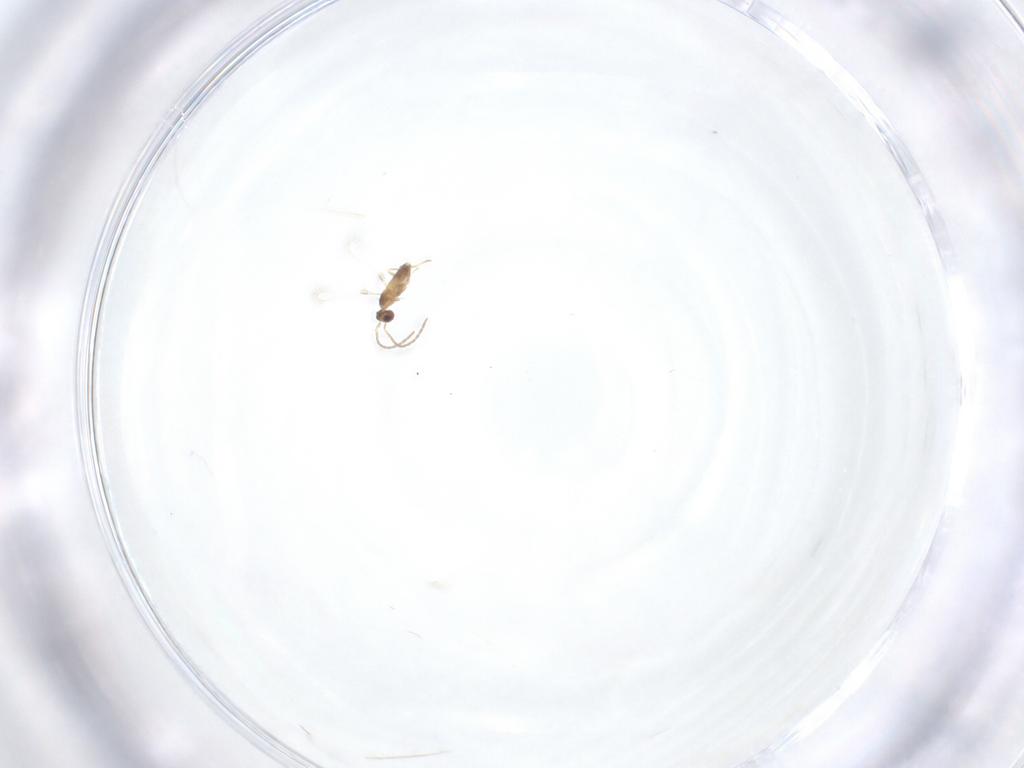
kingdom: Animalia
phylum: Arthropoda
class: Insecta
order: Hymenoptera
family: Mymaridae
